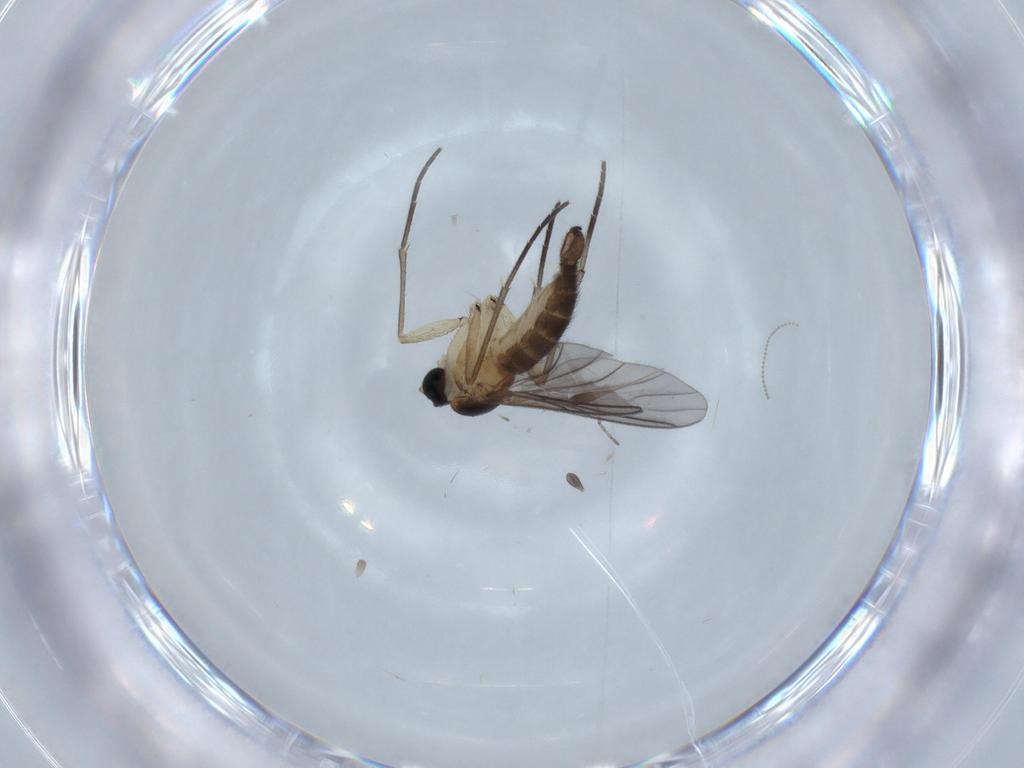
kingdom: Animalia
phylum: Arthropoda
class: Insecta
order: Diptera
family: Sciaridae
